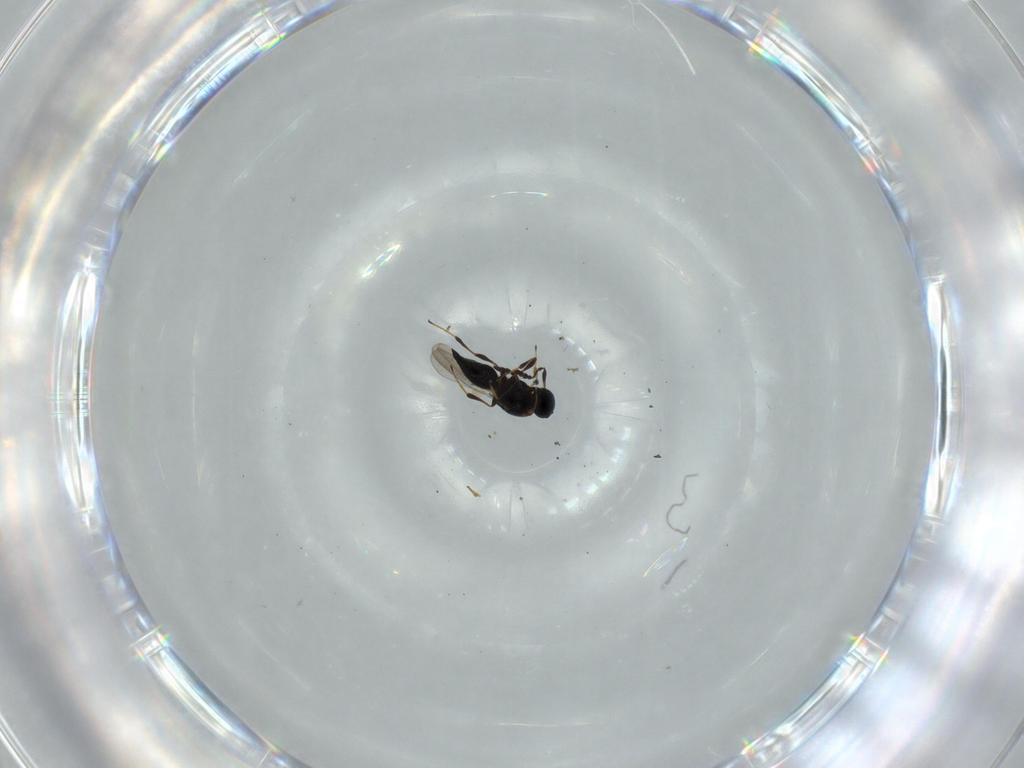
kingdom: Animalia
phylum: Arthropoda
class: Insecta
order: Hymenoptera
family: Platygastridae
